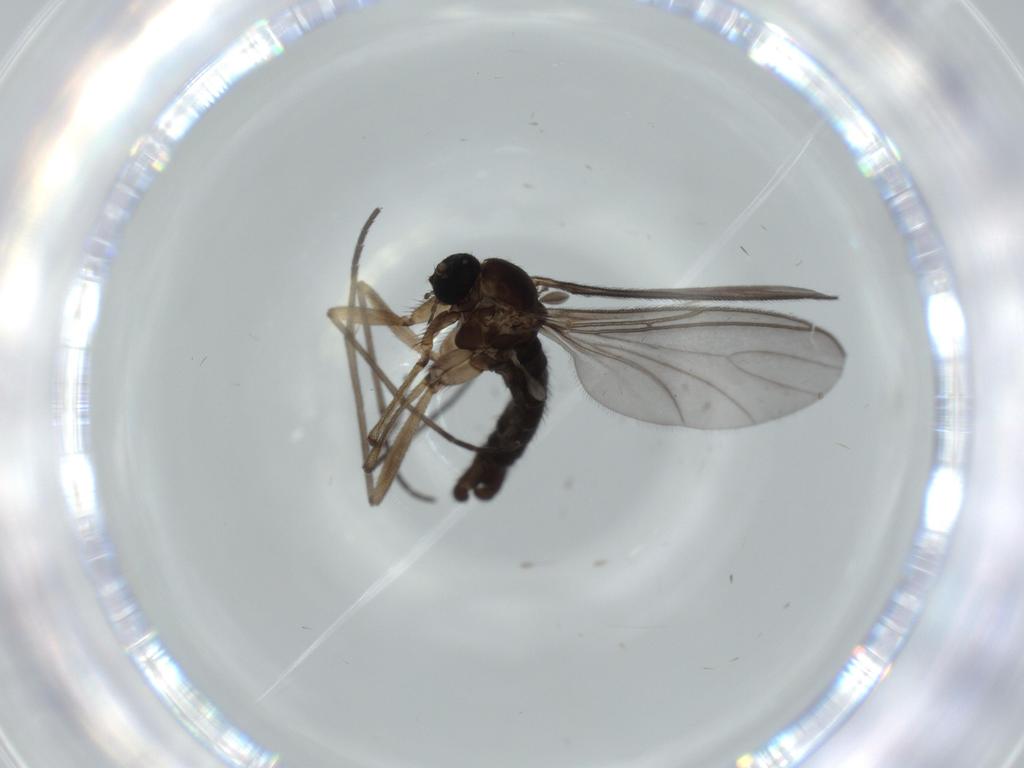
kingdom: Animalia
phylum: Arthropoda
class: Insecta
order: Diptera
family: Sciaridae
